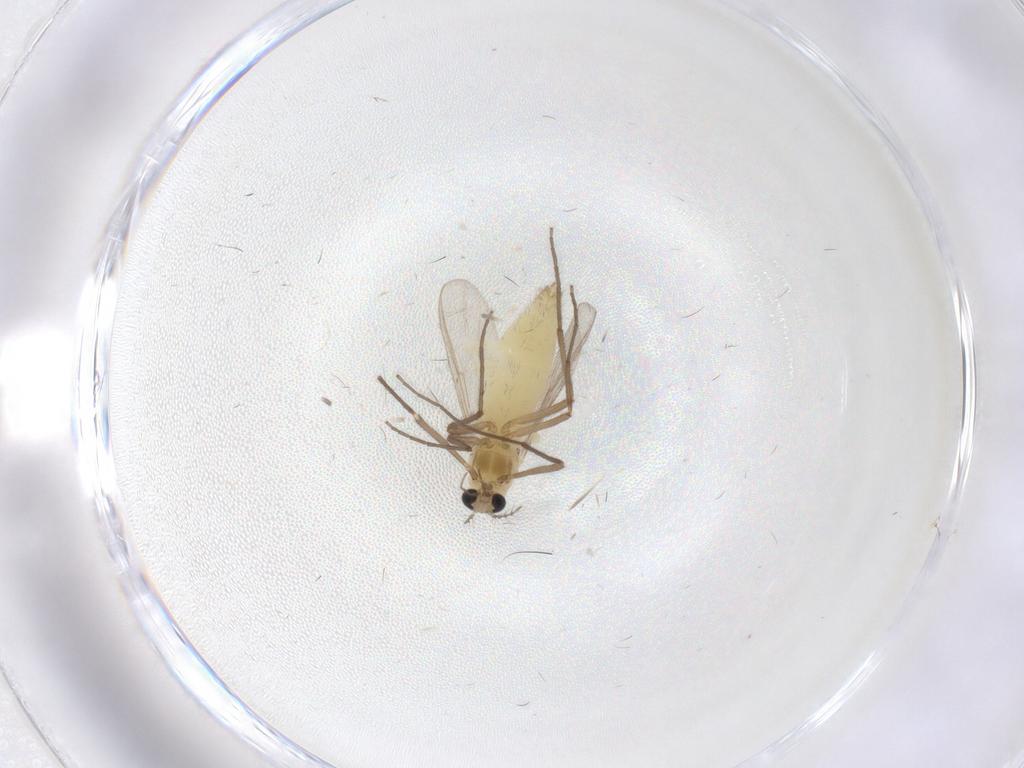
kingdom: Animalia
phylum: Arthropoda
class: Insecta
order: Diptera
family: Chironomidae
